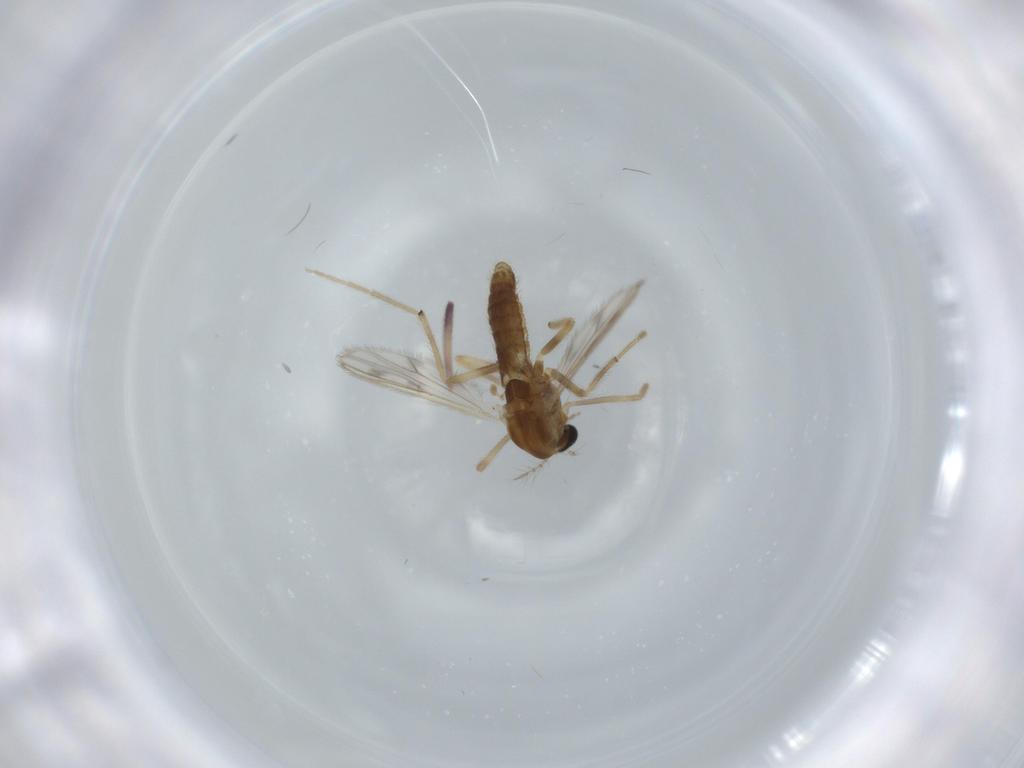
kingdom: Animalia
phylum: Arthropoda
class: Insecta
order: Diptera
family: Chironomidae
